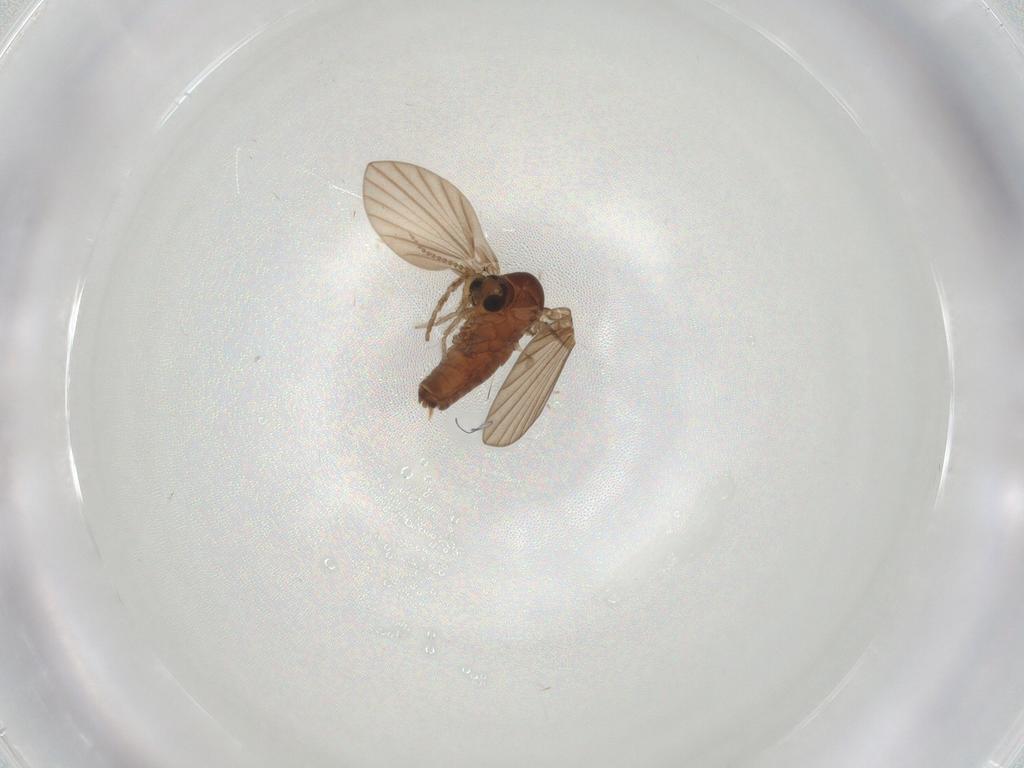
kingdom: Animalia
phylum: Arthropoda
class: Insecta
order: Diptera
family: Psychodidae
